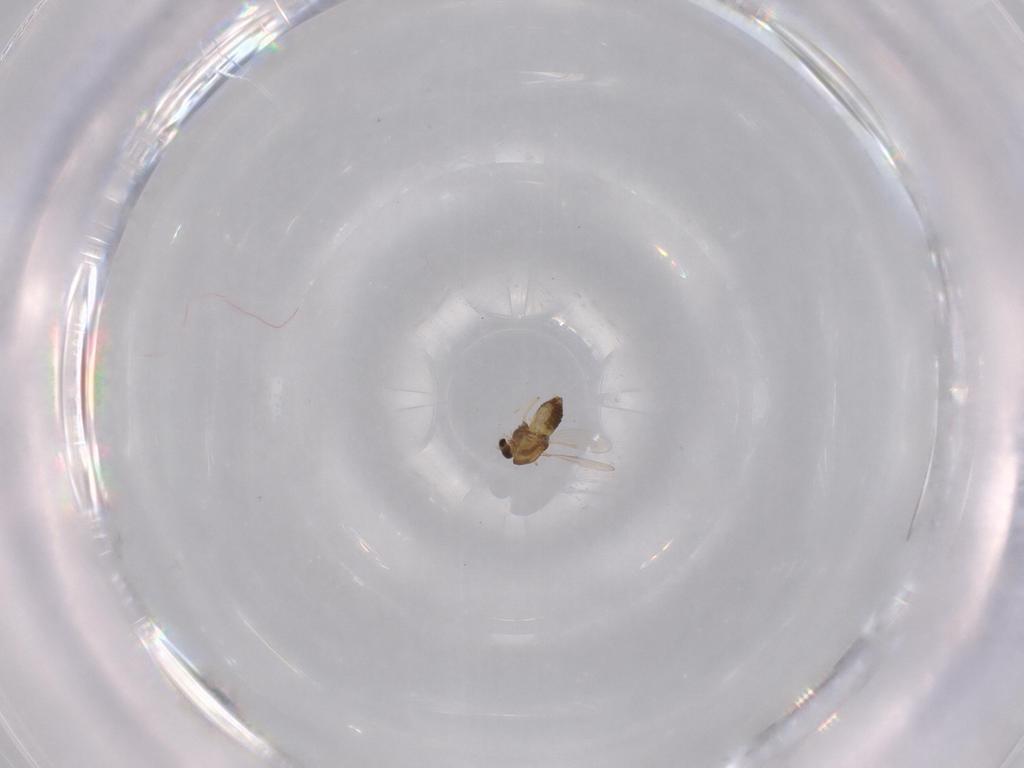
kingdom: Animalia
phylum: Arthropoda
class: Insecta
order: Diptera
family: Chironomidae
